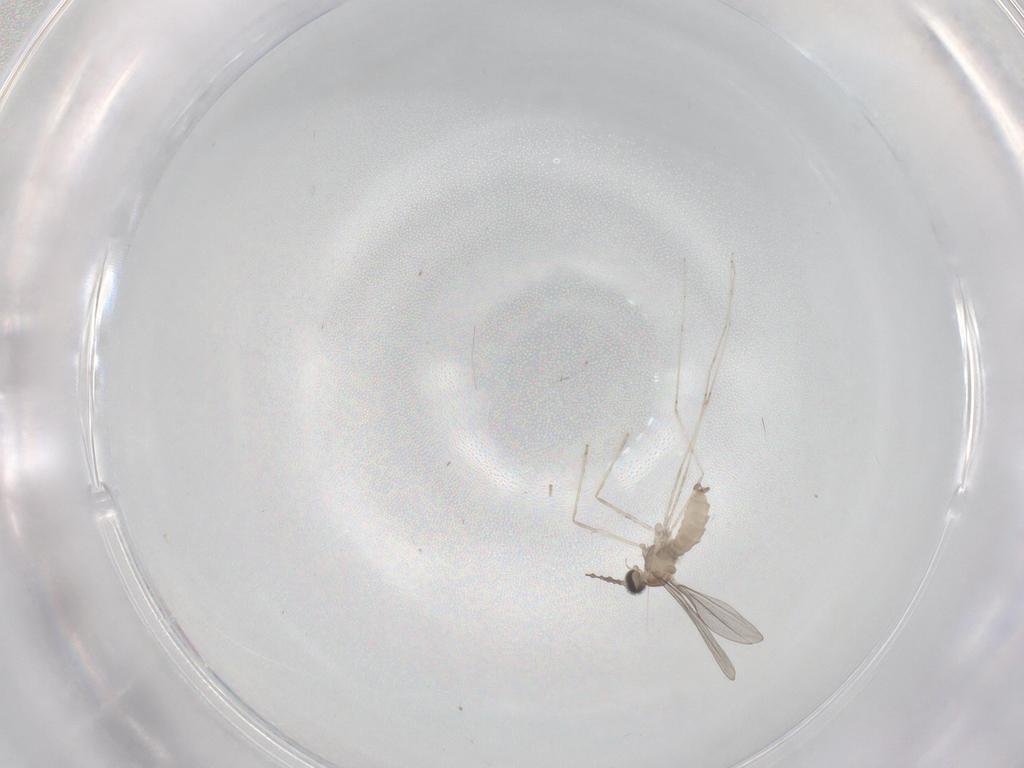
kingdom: Animalia
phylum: Arthropoda
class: Insecta
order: Diptera
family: Cecidomyiidae
